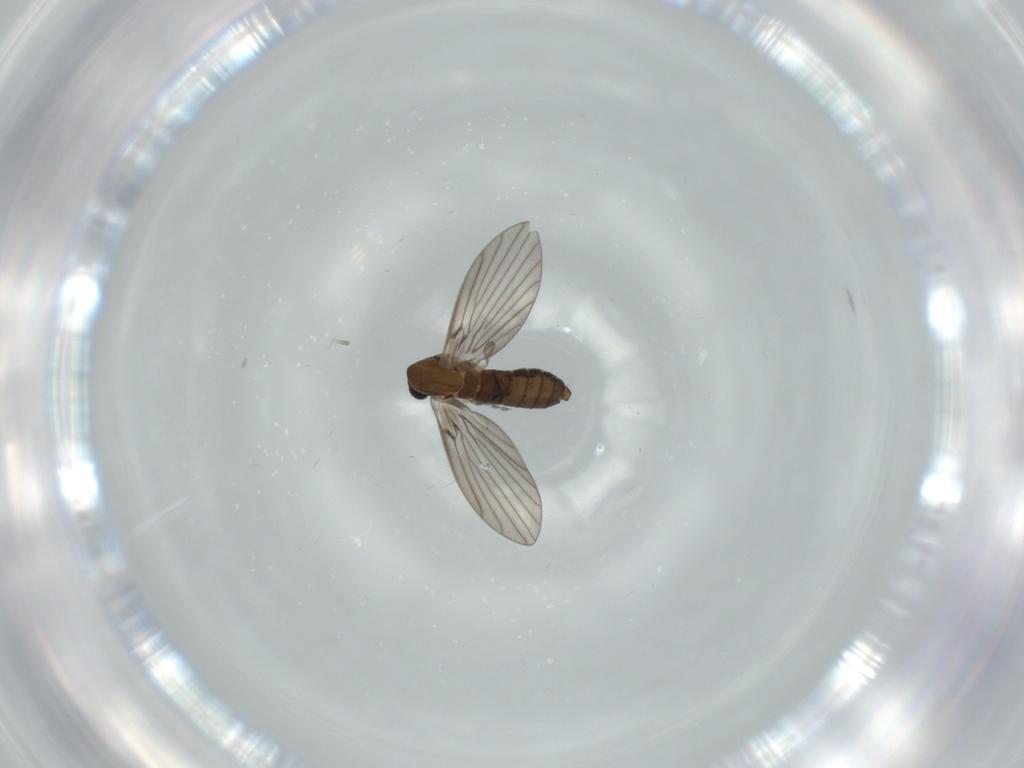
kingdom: Animalia
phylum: Arthropoda
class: Insecta
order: Diptera
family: Psychodidae
